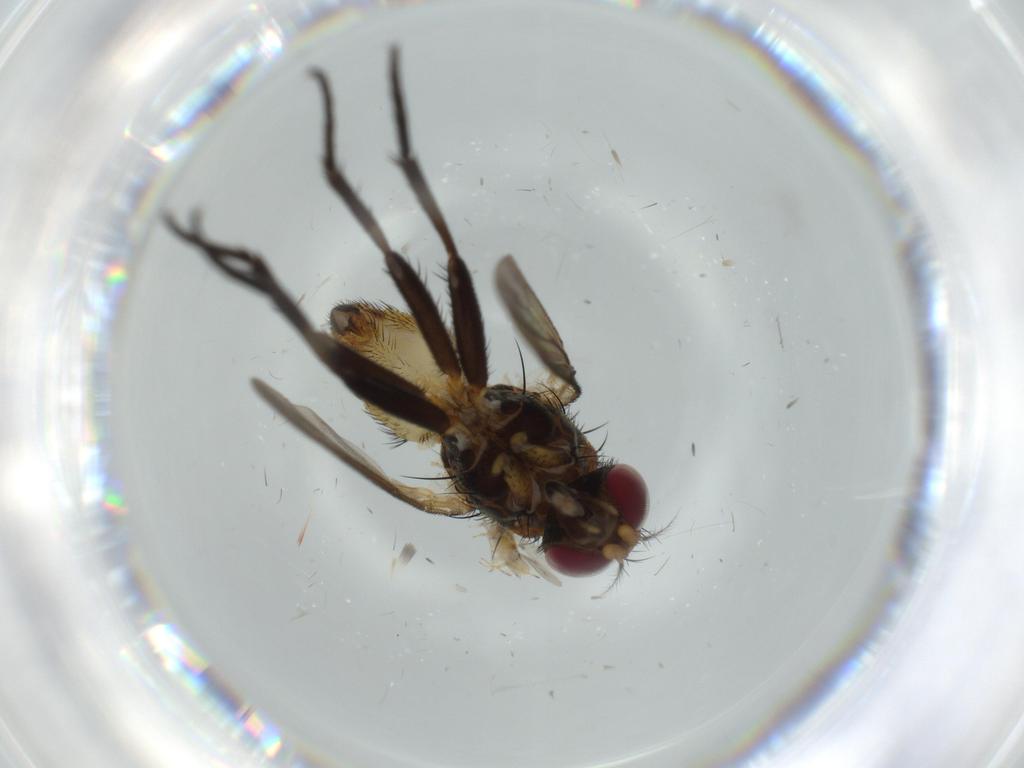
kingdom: Animalia
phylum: Arthropoda
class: Insecta
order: Diptera
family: Anthomyiidae
